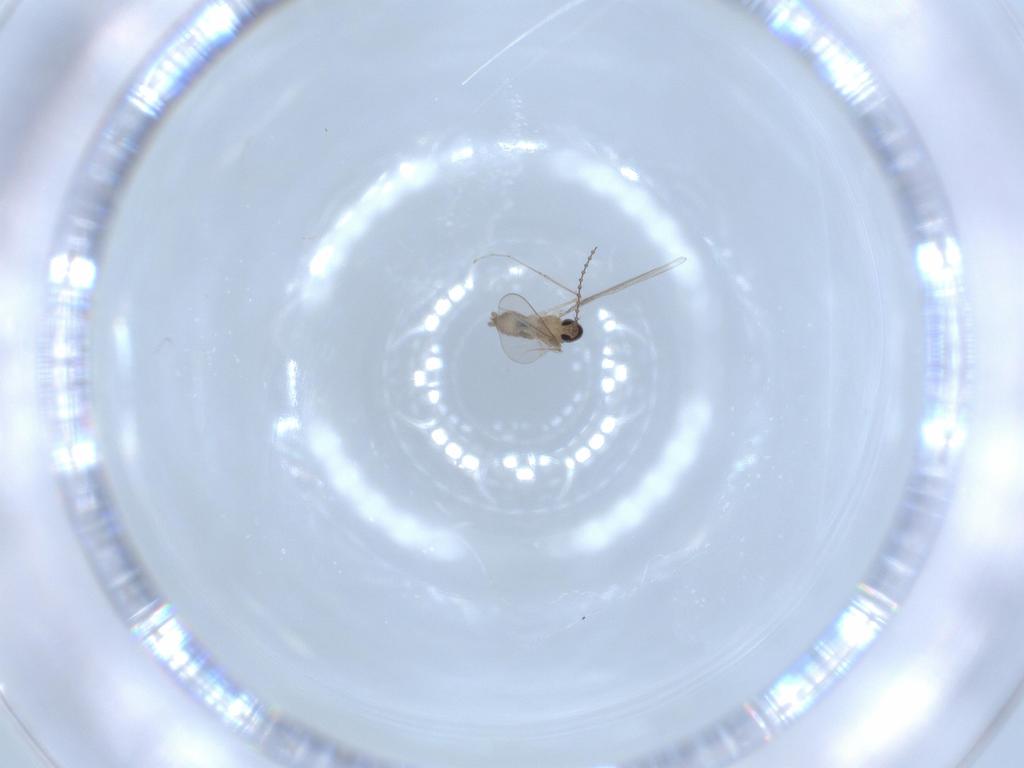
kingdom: Animalia
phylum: Arthropoda
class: Insecta
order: Diptera
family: Cecidomyiidae
